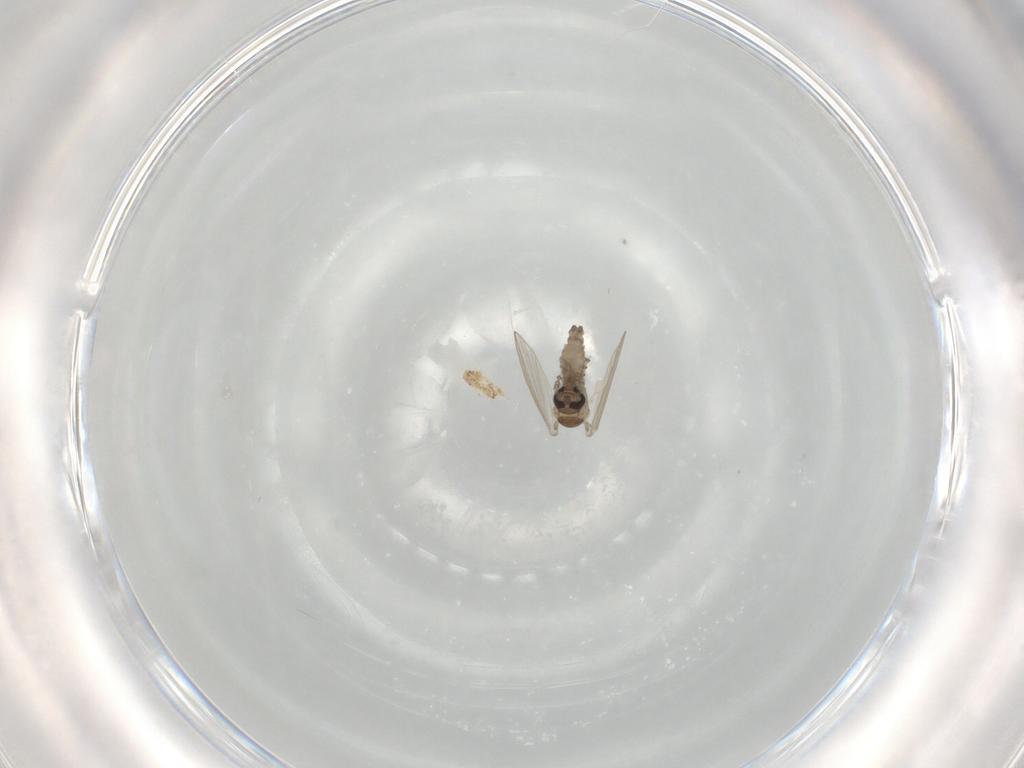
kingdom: Animalia
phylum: Arthropoda
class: Insecta
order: Diptera
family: Psychodidae
